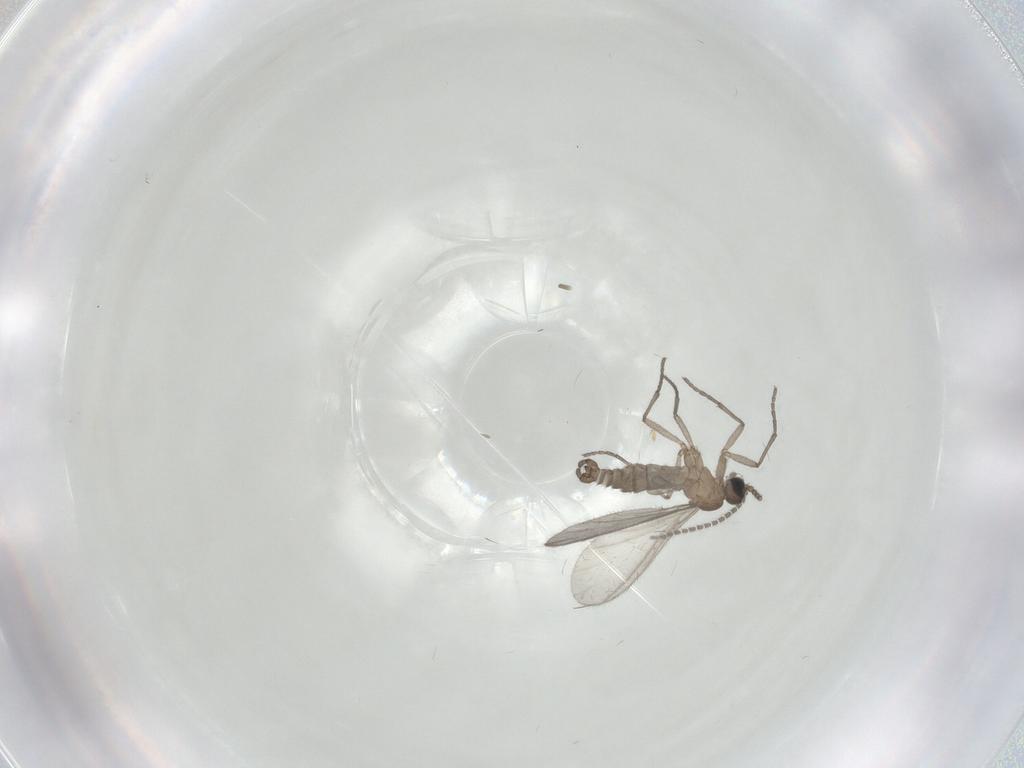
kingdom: Animalia
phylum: Arthropoda
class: Insecta
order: Diptera
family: Sciaridae
